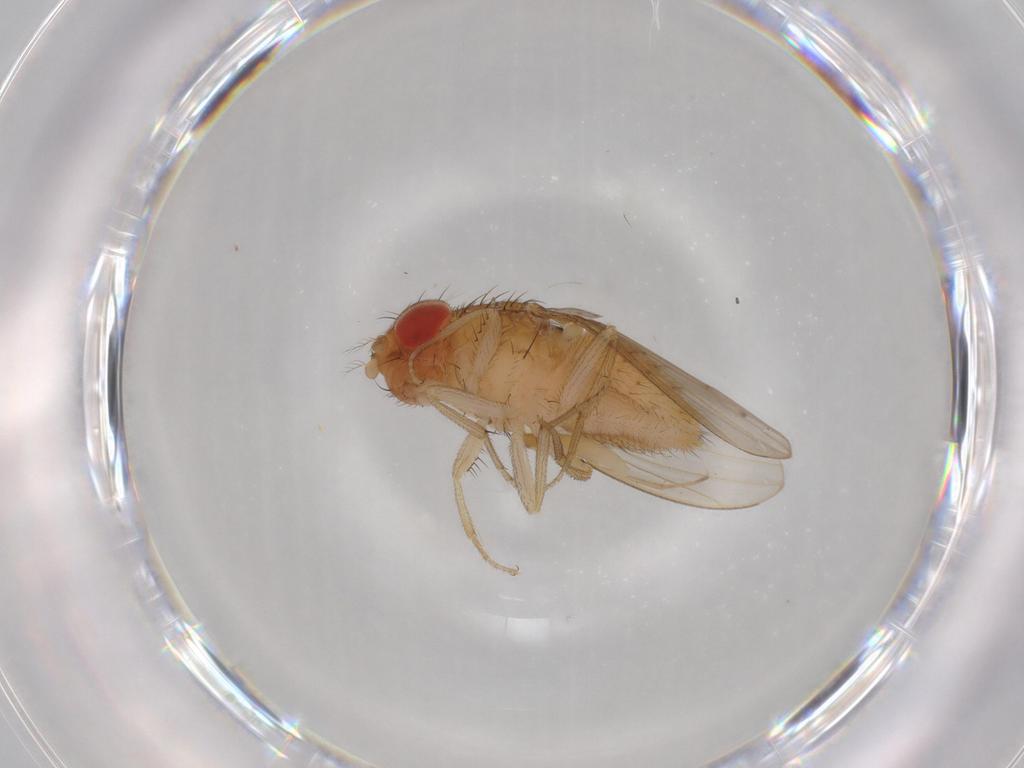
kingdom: Animalia
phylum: Arthropoda
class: Insecta
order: Diptera
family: Drosophilidae
